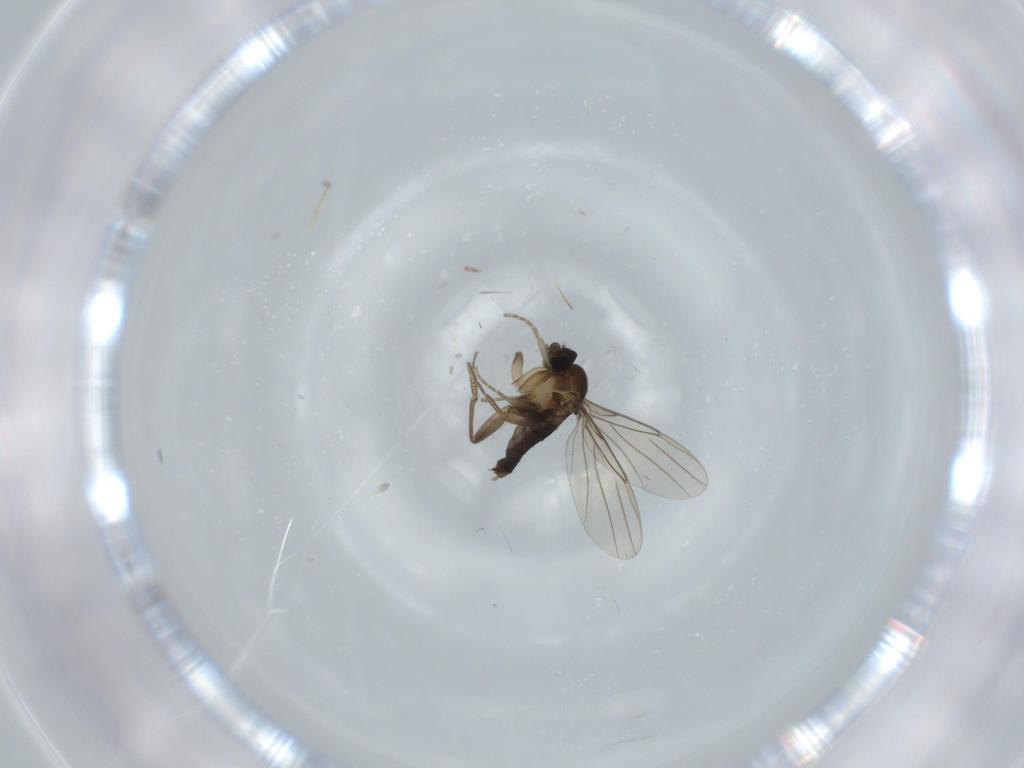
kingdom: Animalia
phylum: Arthropoda
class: Insecta
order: Diptera
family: Phoridae
